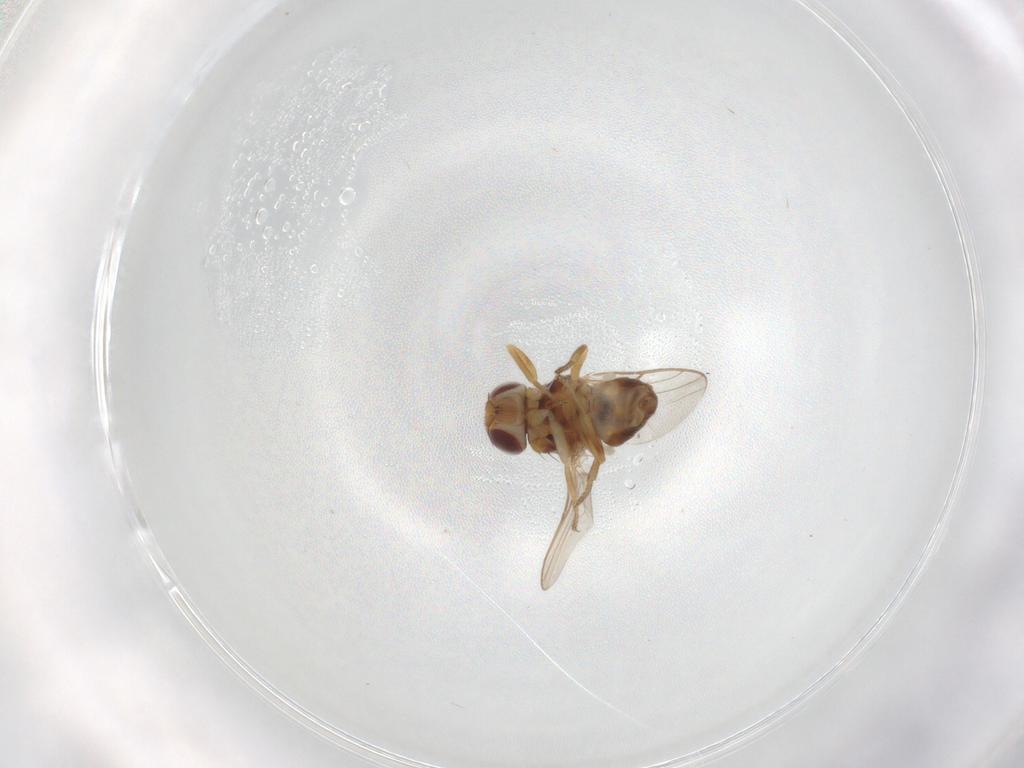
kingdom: Animalia
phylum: Arthropoda
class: Insecta
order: Diptera
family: Chloropidae
